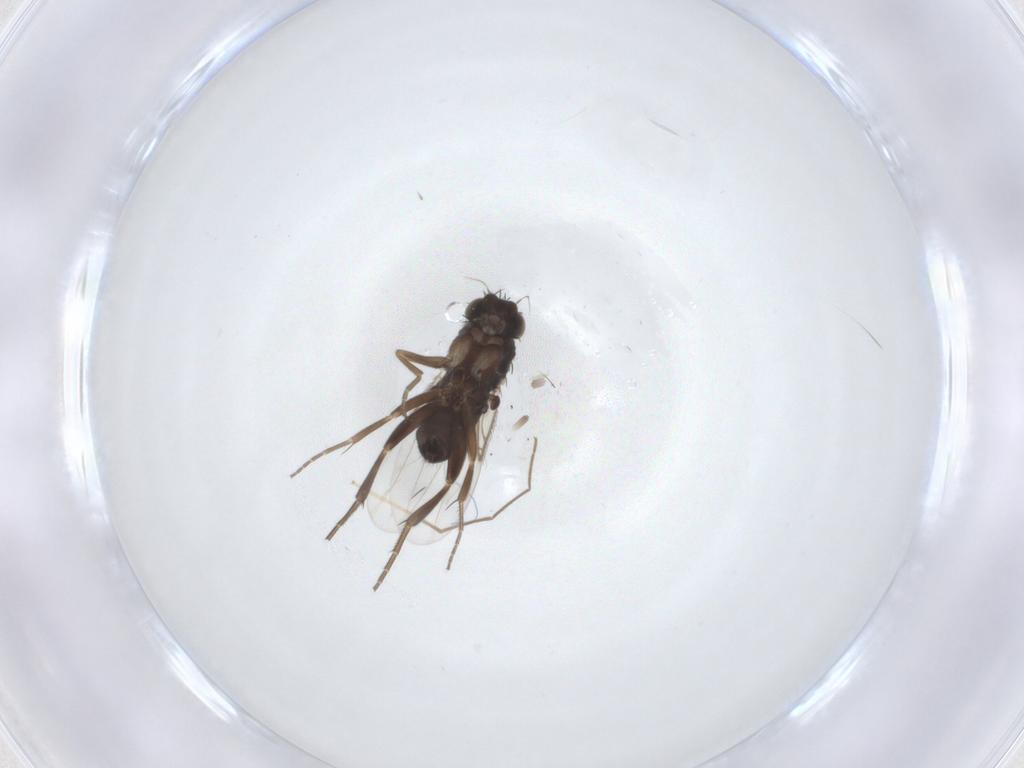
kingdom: Animalia
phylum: Arthropoda
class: Insecta
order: Diptera
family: Phoridae
